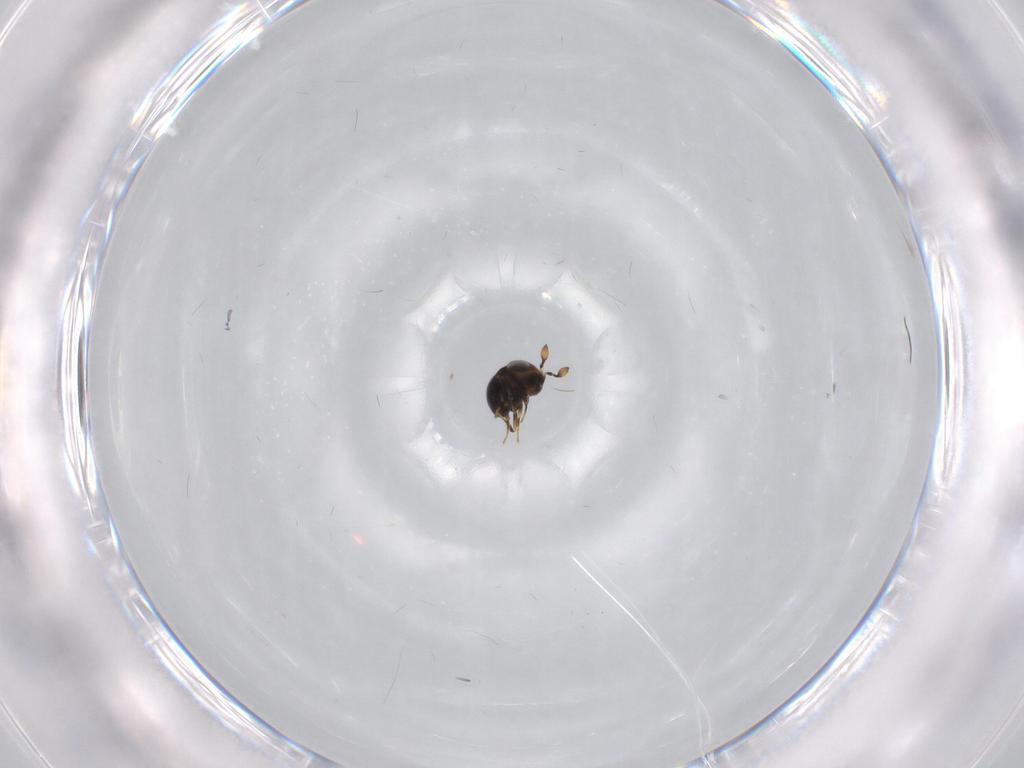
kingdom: Animalia
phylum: Arthropoda
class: Insecta
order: Hymenoptera
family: Scelionidae
